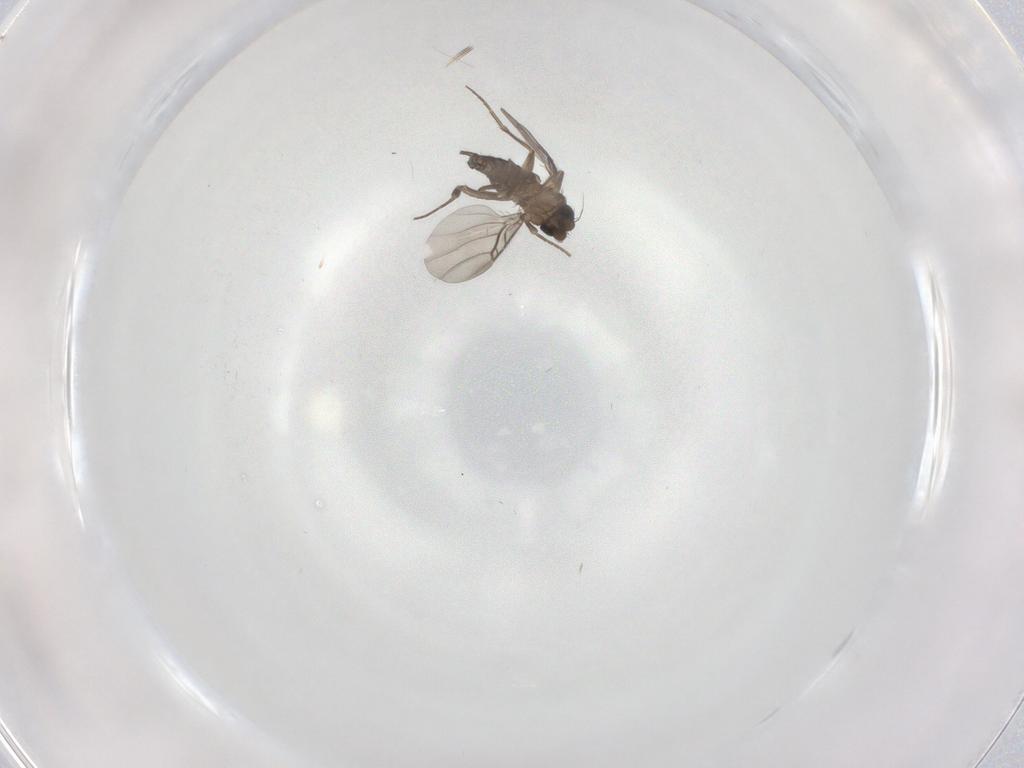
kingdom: Animalia
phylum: Arthropoda
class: Insecta
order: Diptera
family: Phoridae
